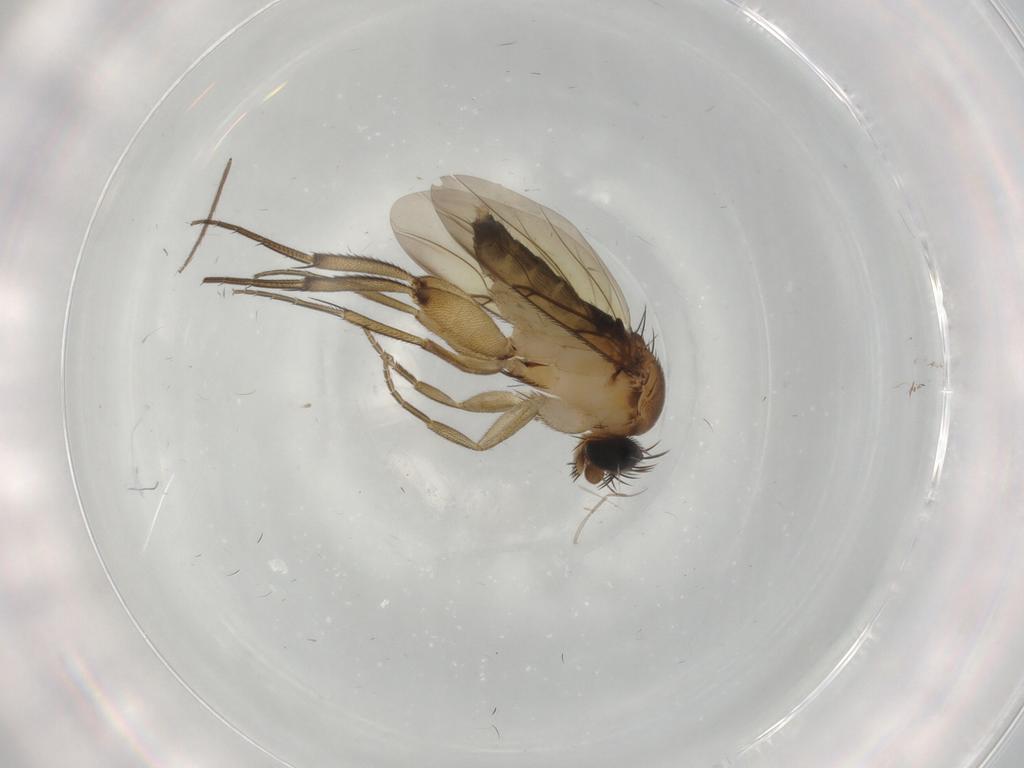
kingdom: Animalia
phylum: Arthropoda
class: Insecta
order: Diptera
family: Phoridae
